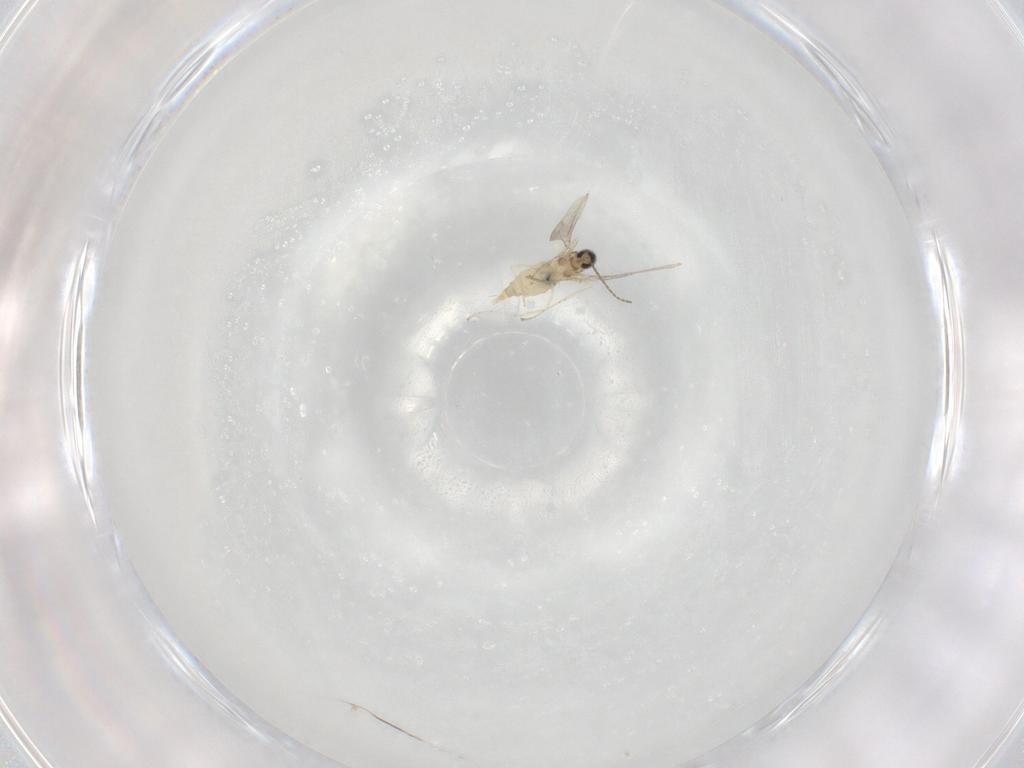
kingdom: Animalia
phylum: Arthropoda
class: Insecta
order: Diptera
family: Cecidomyiidae
